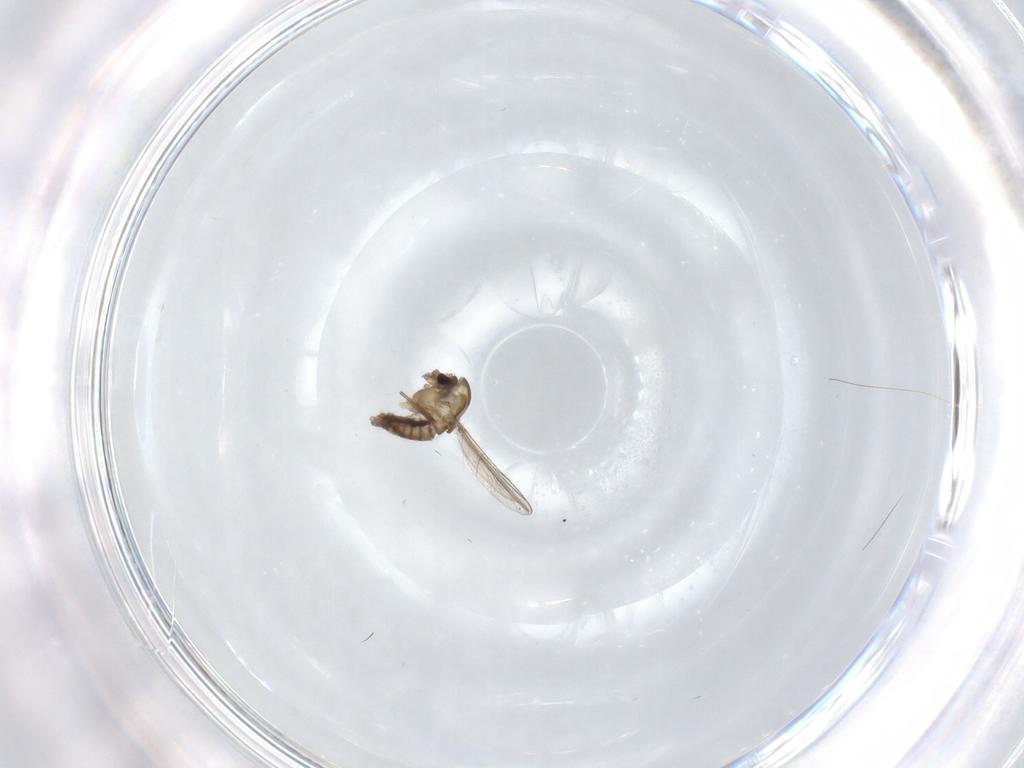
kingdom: Animalia
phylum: Arthropoda
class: Insecta
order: Diptera
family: Chironomidae
